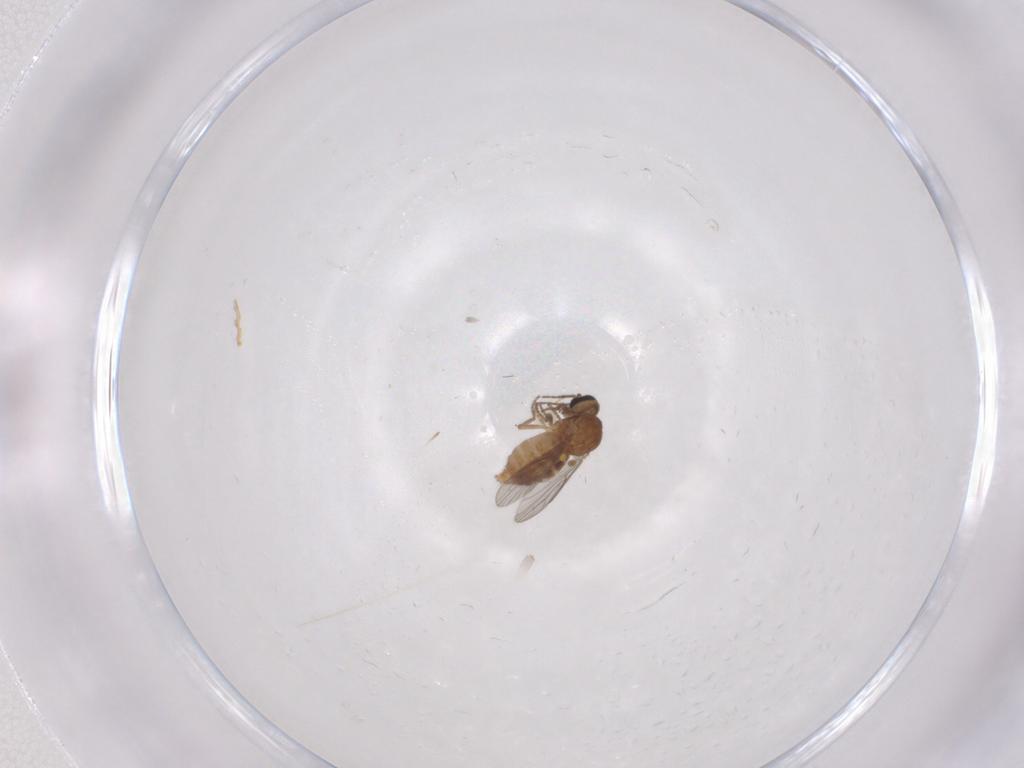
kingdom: Animalia
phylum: Arthropoda
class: Insecta
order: Diptera
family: Ceratopogonidae
